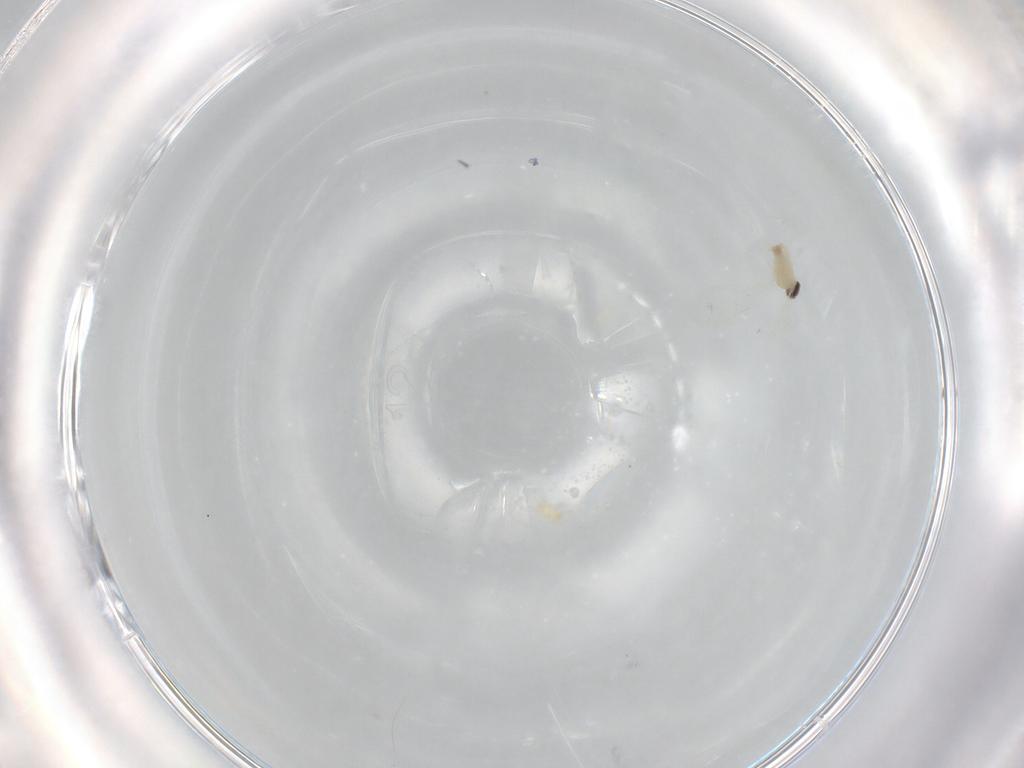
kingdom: Animalia
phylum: Arthropoda
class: Insecta
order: Diptera
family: Cecidomyiidae
